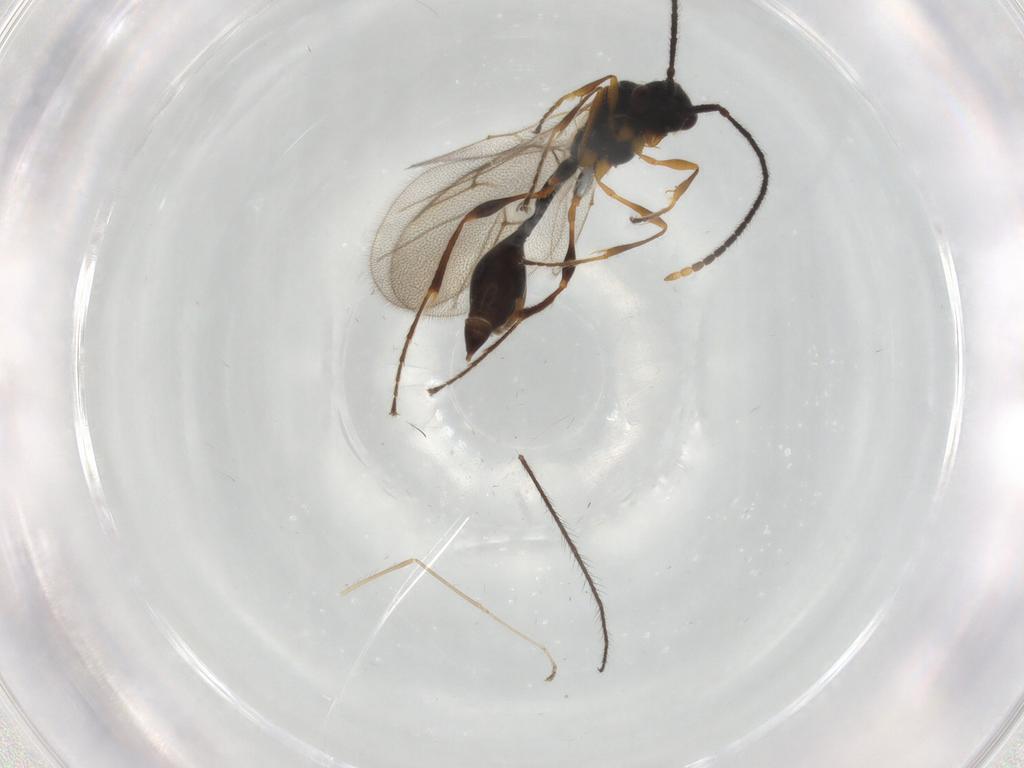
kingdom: Animalia
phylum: Arthropoda
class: Insecta
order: Hymenoptera
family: Diapriidae
